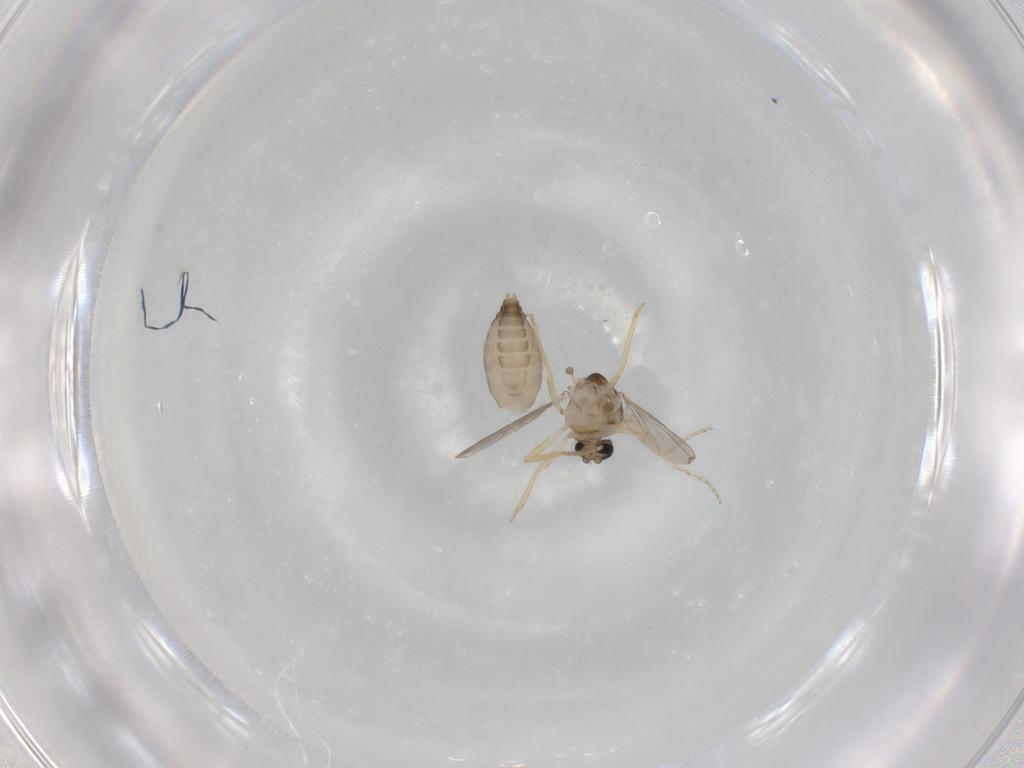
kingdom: Animalia
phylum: Arthropoda
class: Insecta
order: Diptera
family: Ceratopogonidae
